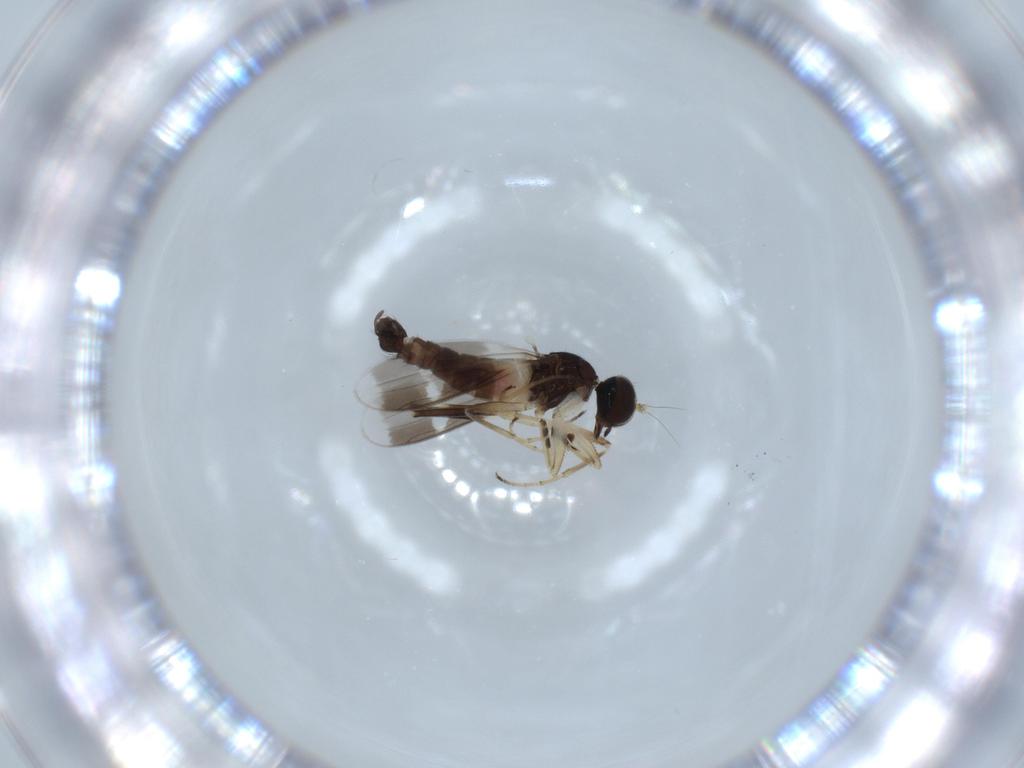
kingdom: Animalia
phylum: Arthropoda
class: Insecta
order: Diptera
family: Hybotidae
